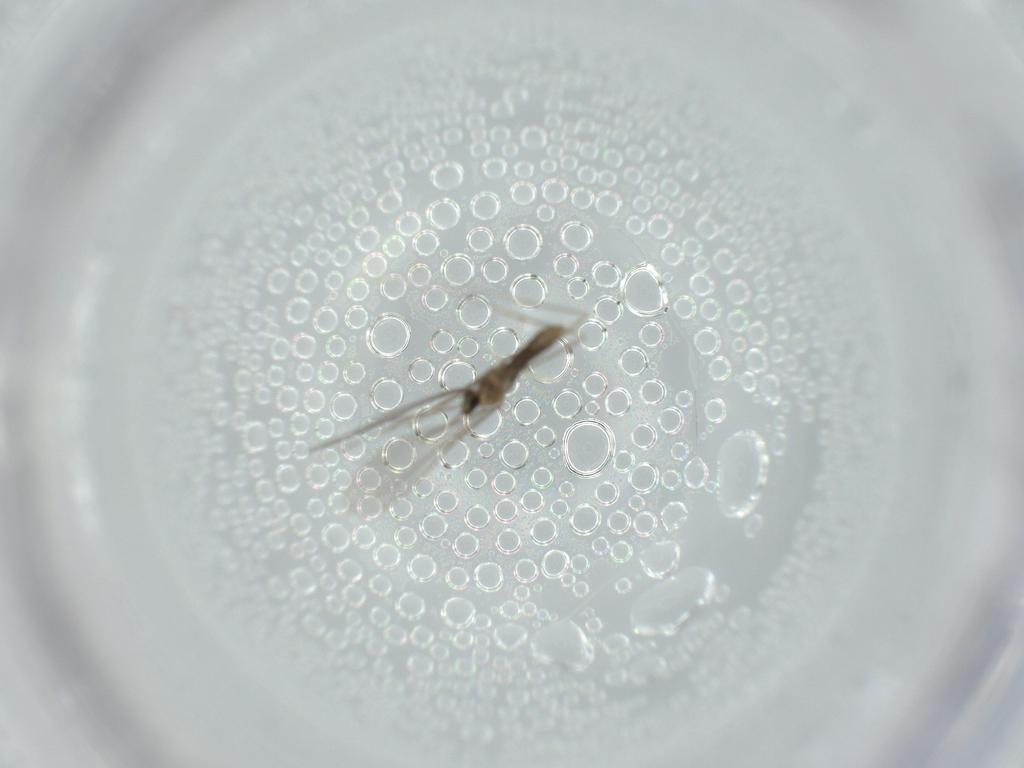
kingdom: Animalia
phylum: Arthropoda
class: Insecta
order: Diptera
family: Cecidomyiidae
